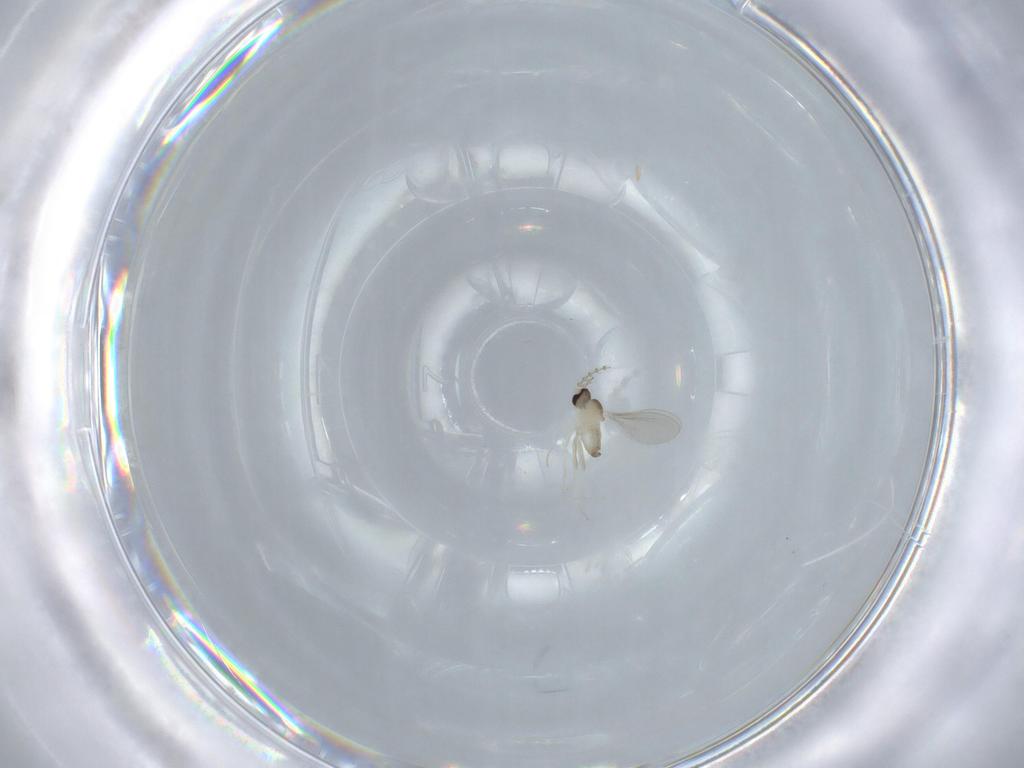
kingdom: Animalia
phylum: Arthropoda
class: Insecta
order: Diptera
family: Cecidomyiidae
